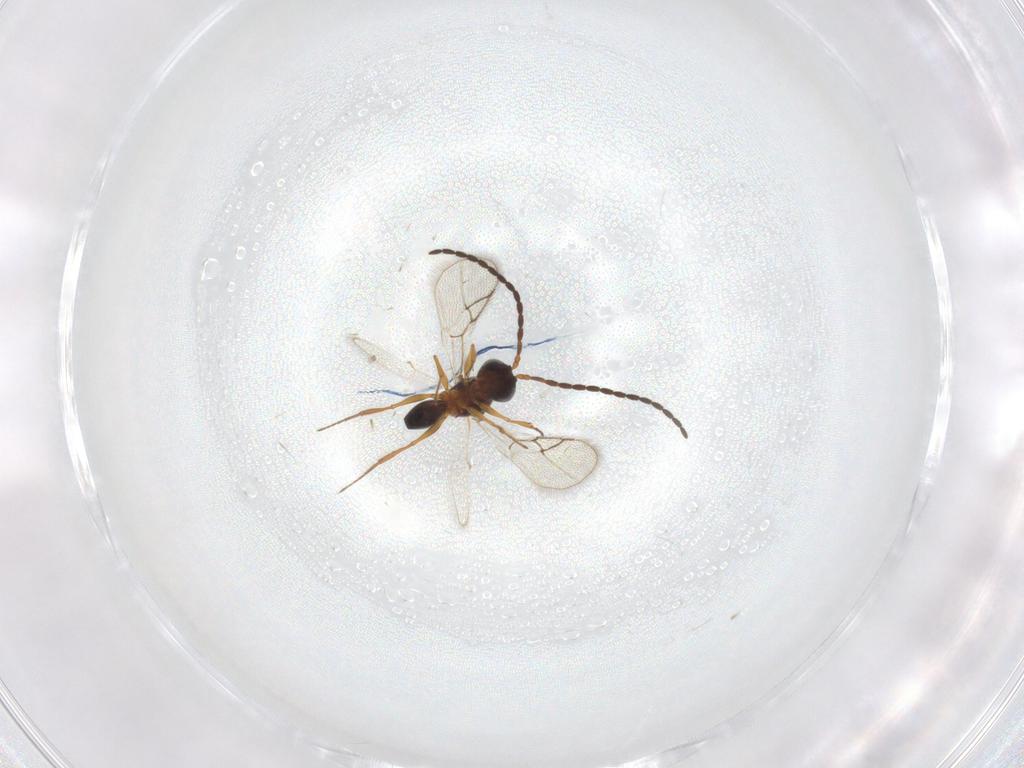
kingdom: Animalia
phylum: Arthropoda
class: Insecta
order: Hymenoptera
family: Figitidae
